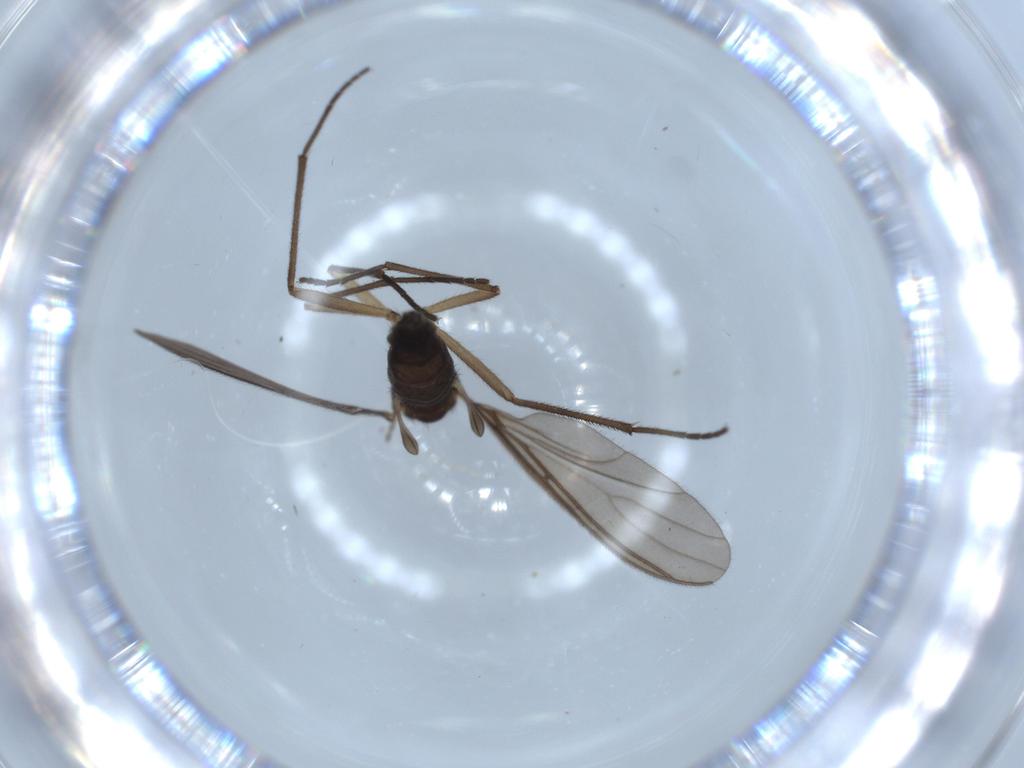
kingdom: Animalia
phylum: Arthropoda
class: Insecta
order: Diptera
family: Sciaridae
